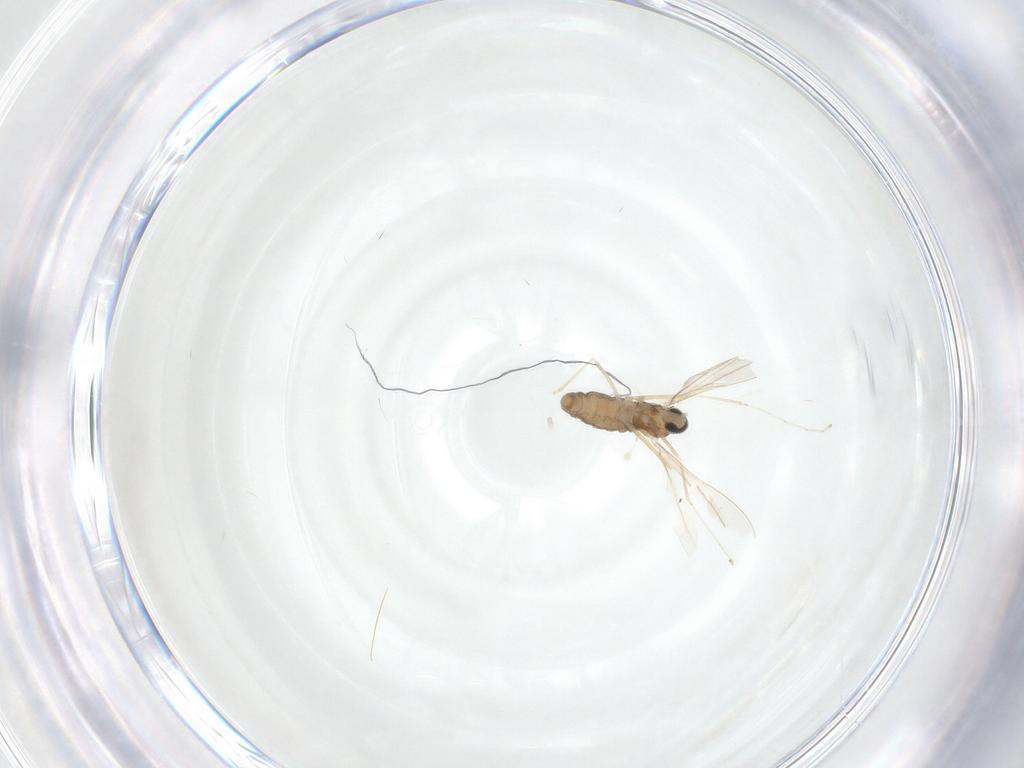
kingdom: Animalia
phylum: Arthropoda
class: Insecta
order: Diptera
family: Cecidomyiidae
